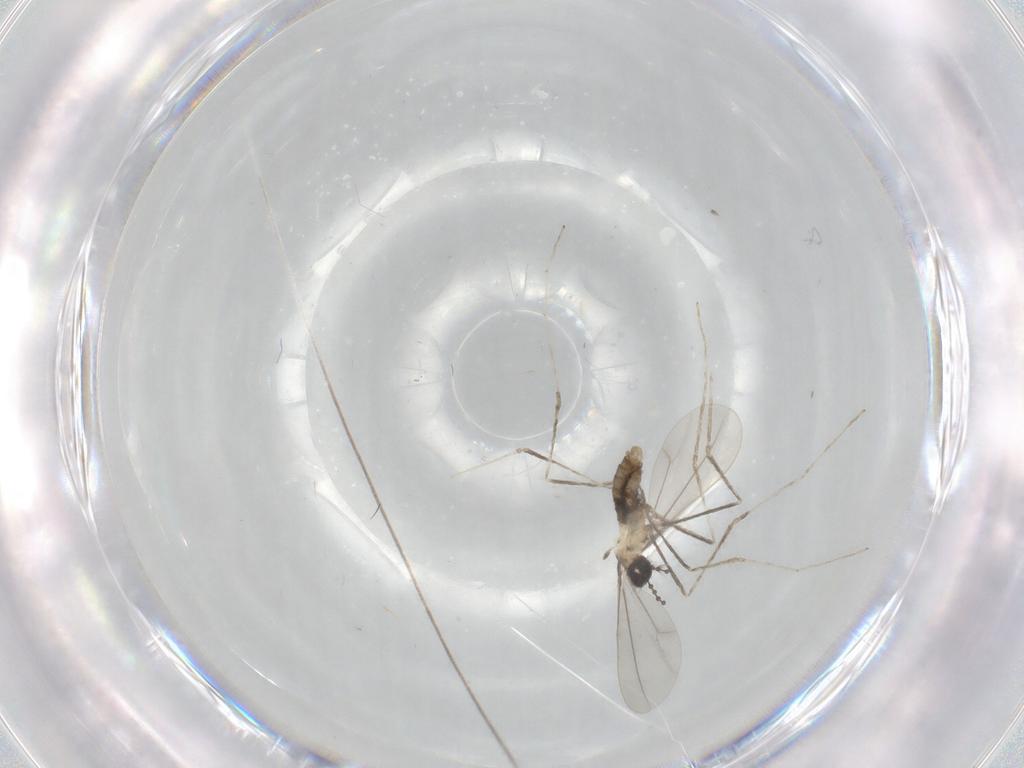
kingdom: Animalia
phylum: Arthropoda
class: Insecta
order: Diptera
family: Cecidomyiidae
